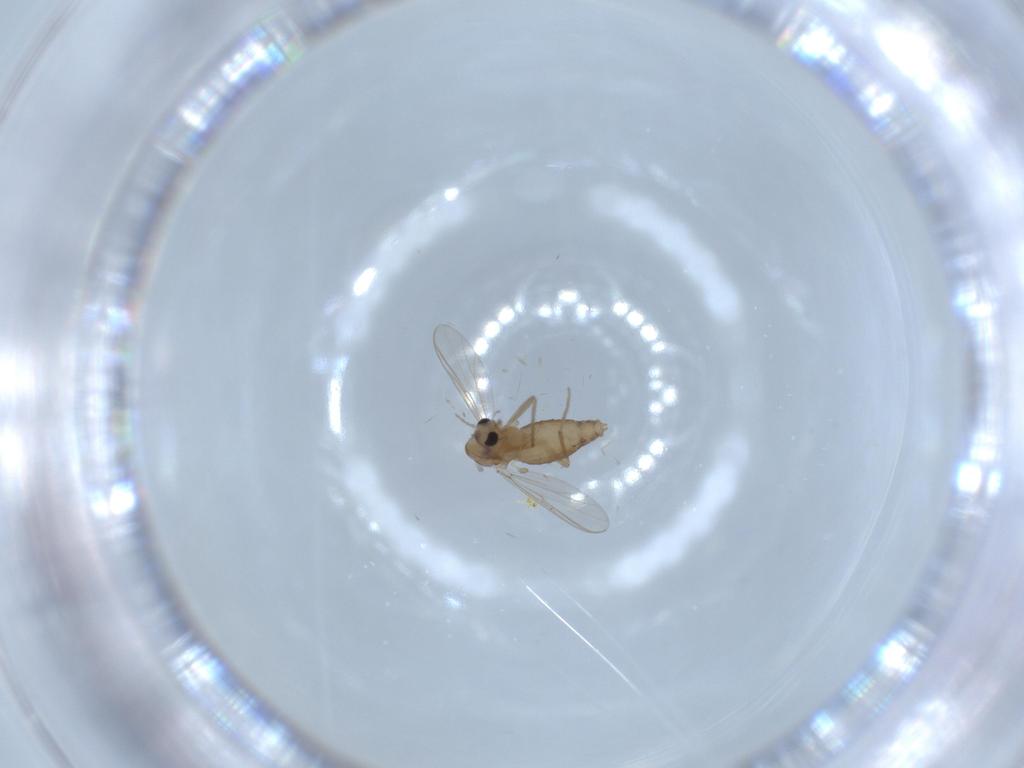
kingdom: Animalia
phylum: Arthropoda
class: Insecta
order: Diptera
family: Chironomidae
